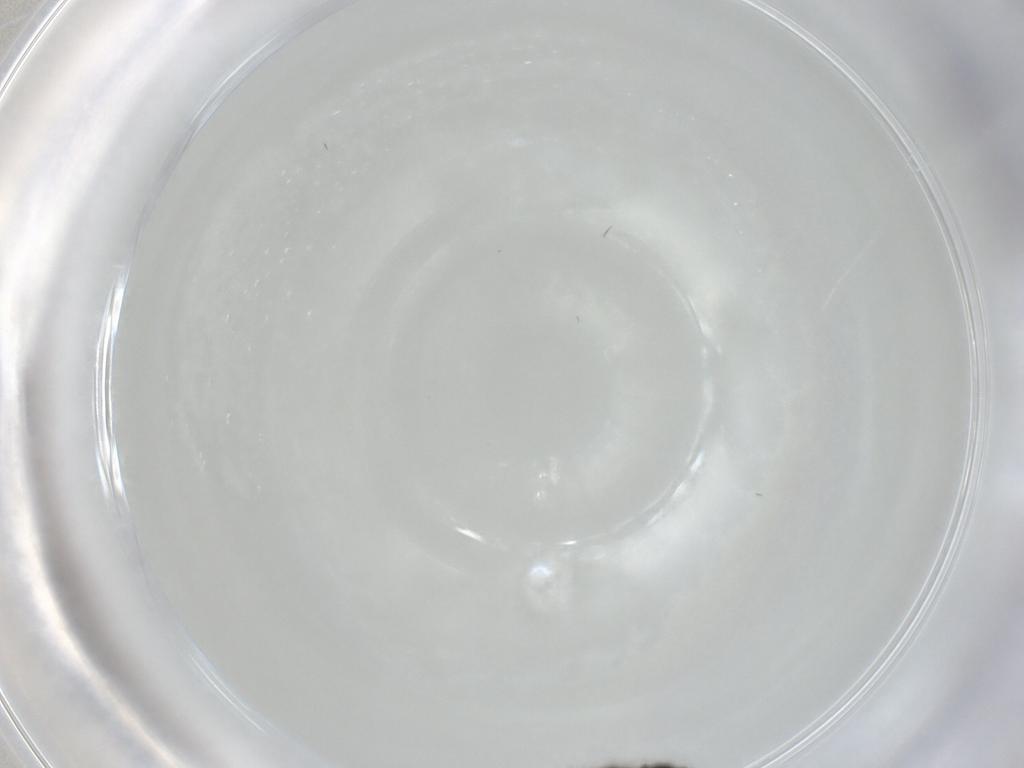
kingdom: Animalia
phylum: Arthropoda
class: Insecta
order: Diptera
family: Phoridae
